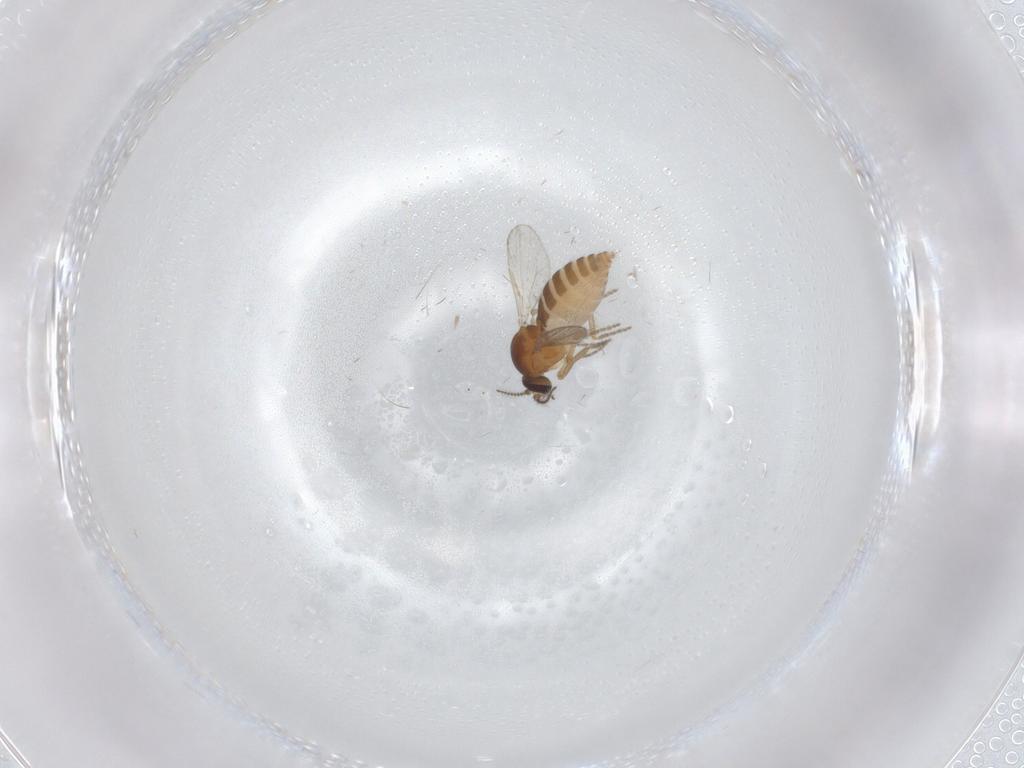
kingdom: Animalia
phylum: Arthropoda
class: Insecta
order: Diptera
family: Ceratopogonidae
